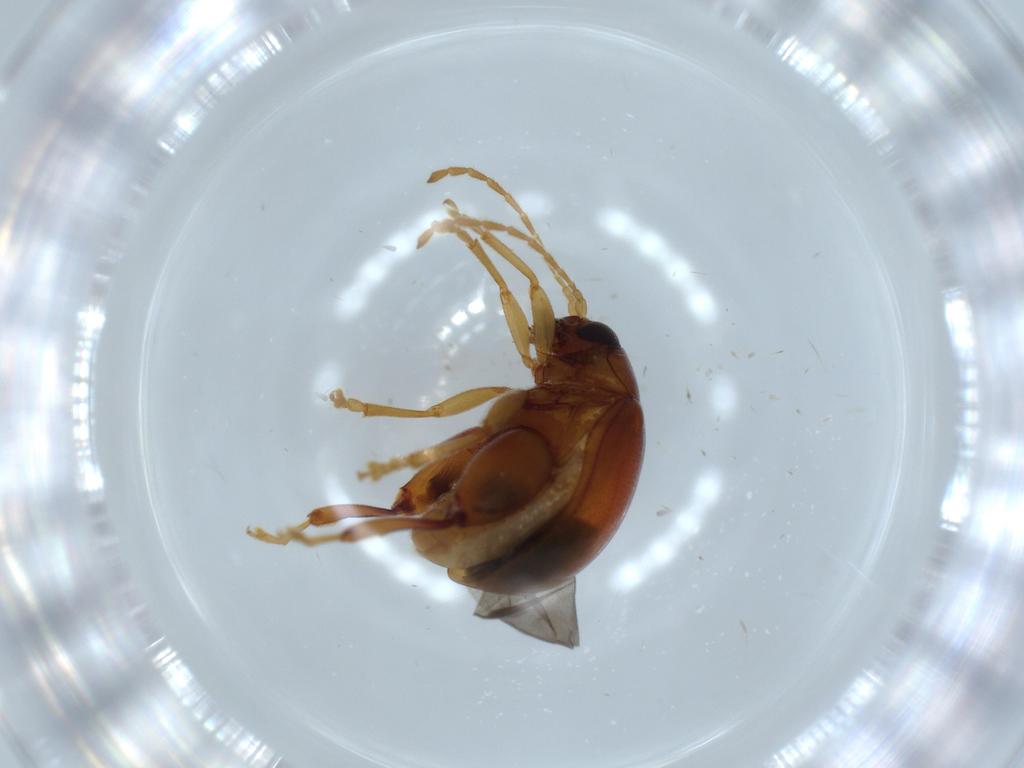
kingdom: Animalia
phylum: Arthropoda
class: Insecta
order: Coleoptera
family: Chrysomelidae
